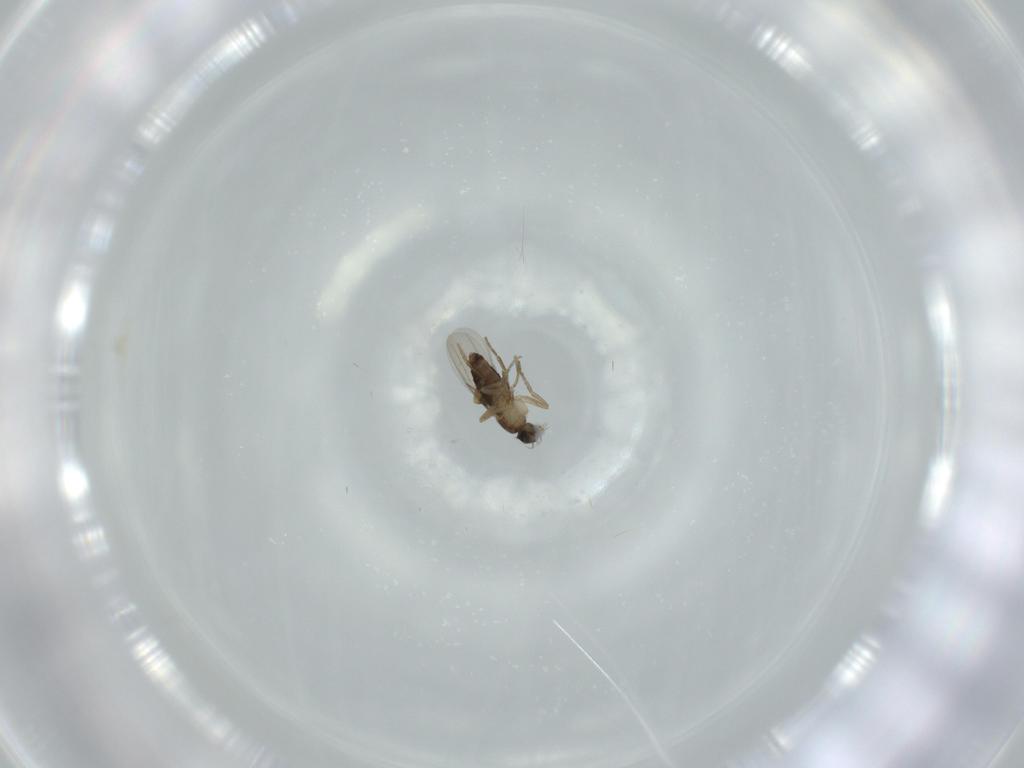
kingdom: Animalia
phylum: Arthropoda
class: Insecta
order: Diptera
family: Phoridae
